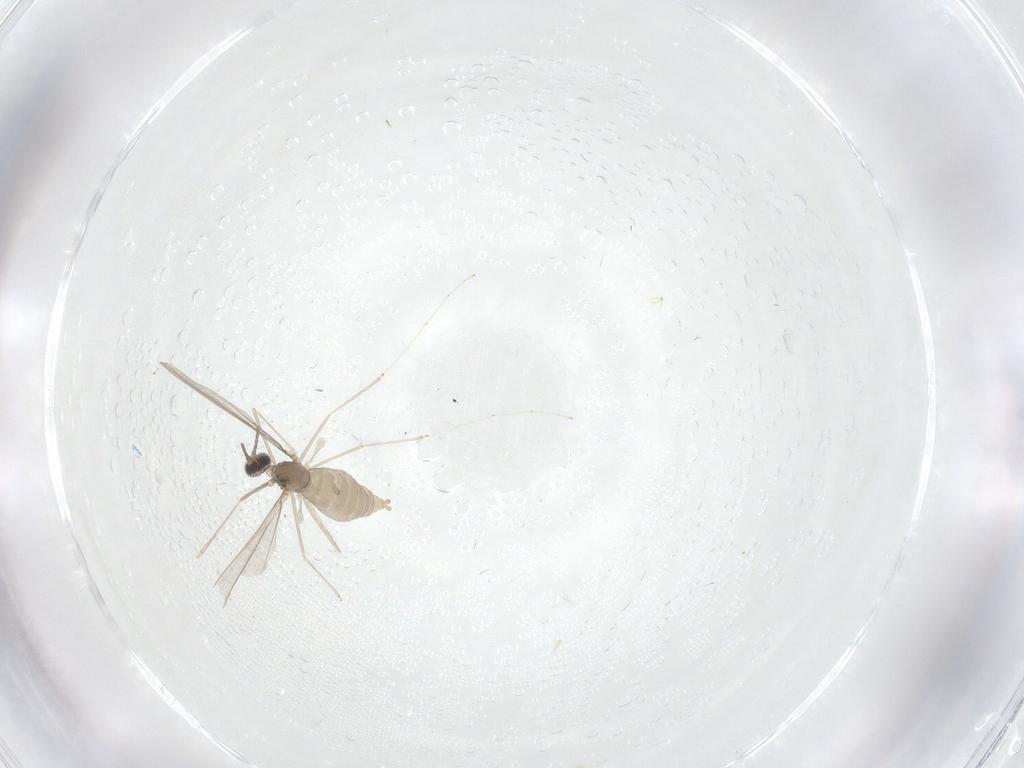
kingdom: Animalia
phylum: Arthropoda
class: Insecta
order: Diptera
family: Cecidomyiidae
